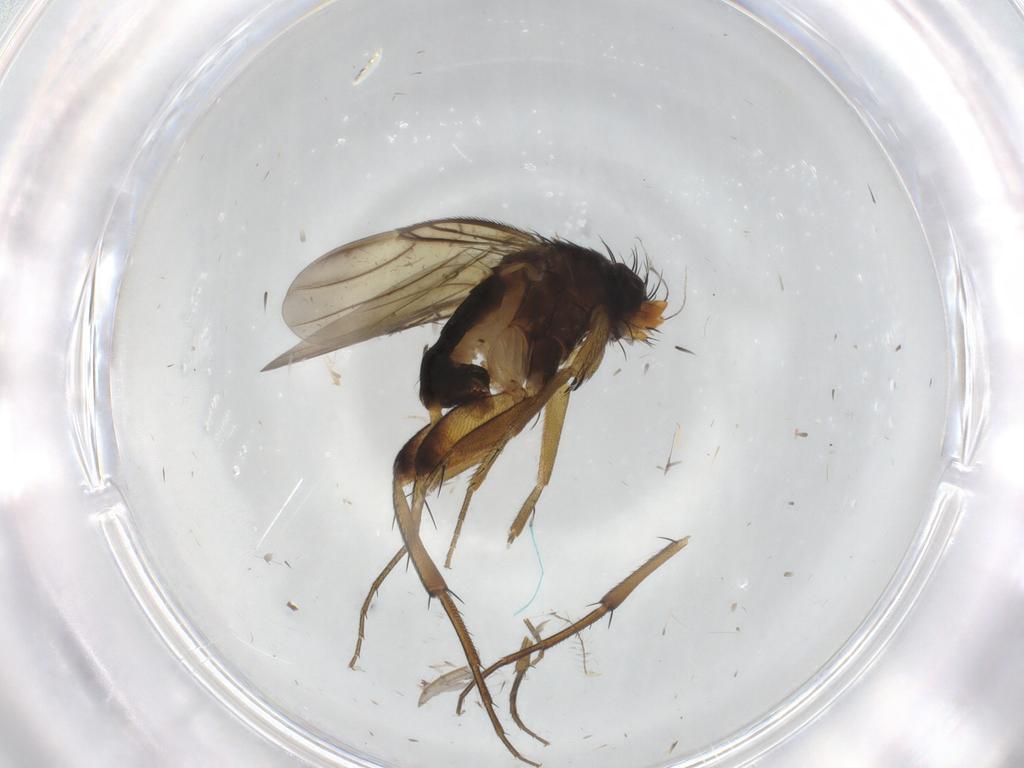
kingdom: Animalia
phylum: Arthropoda
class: Insecta
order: Diptera
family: Phoridae
